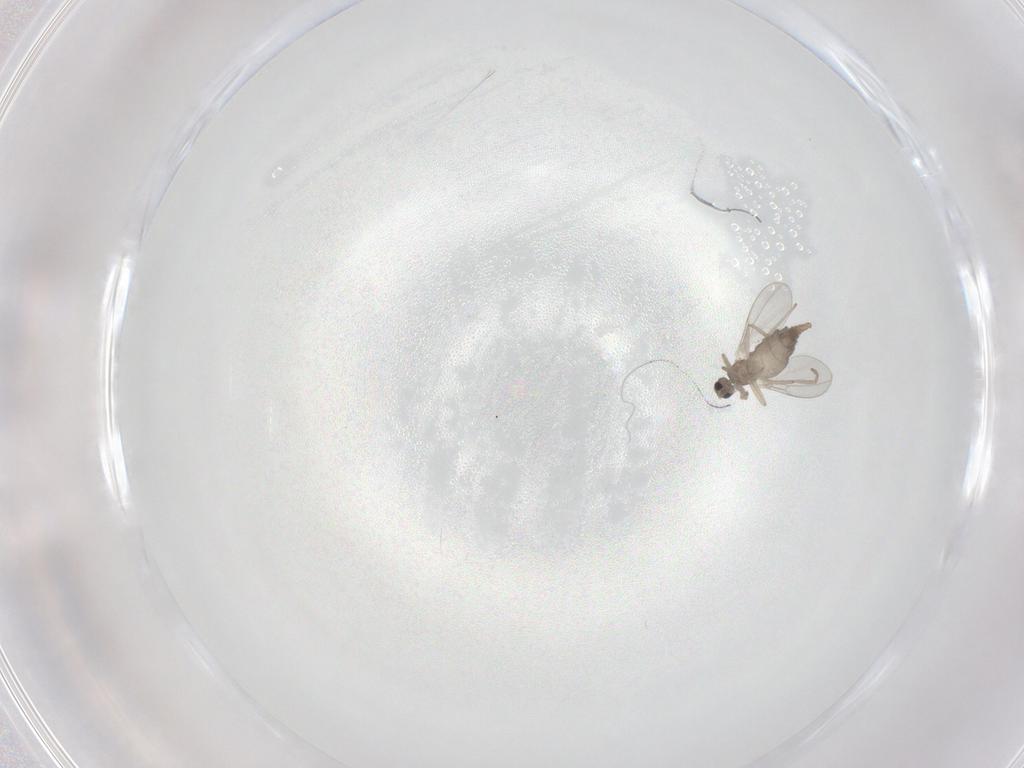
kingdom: Animalia
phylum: Arthropoda
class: Insecta
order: Diptera
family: Cecidomyiidae
